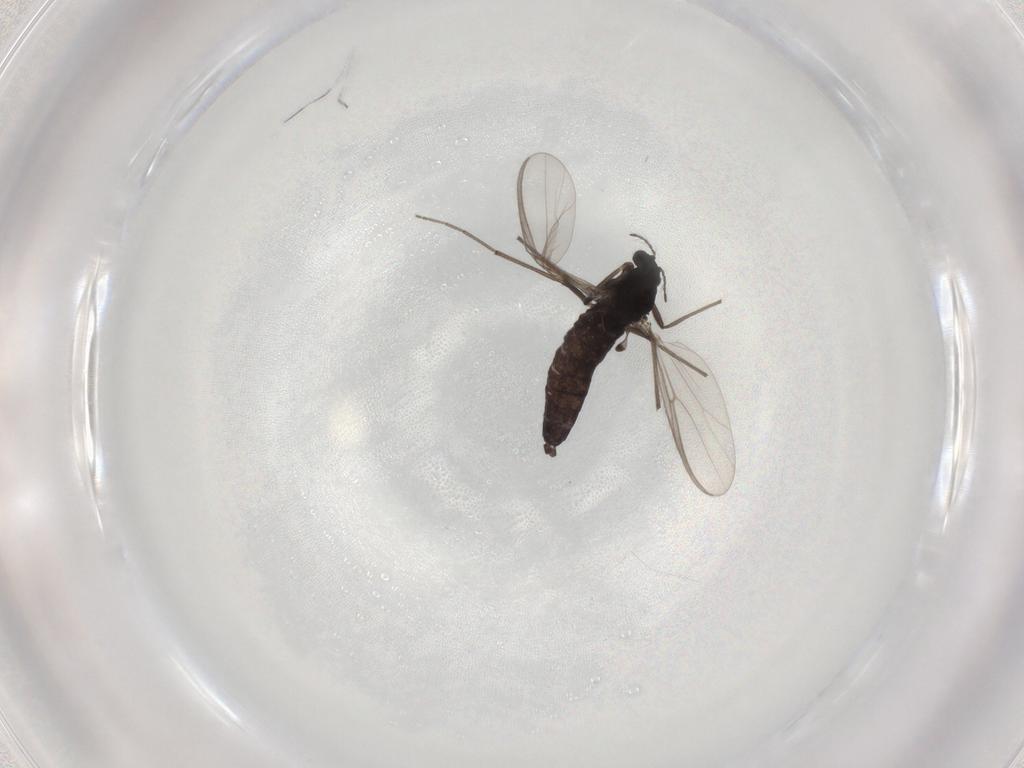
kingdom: Animalia
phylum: Arthropoda
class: Insecta
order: Diptera
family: Chironomidae
